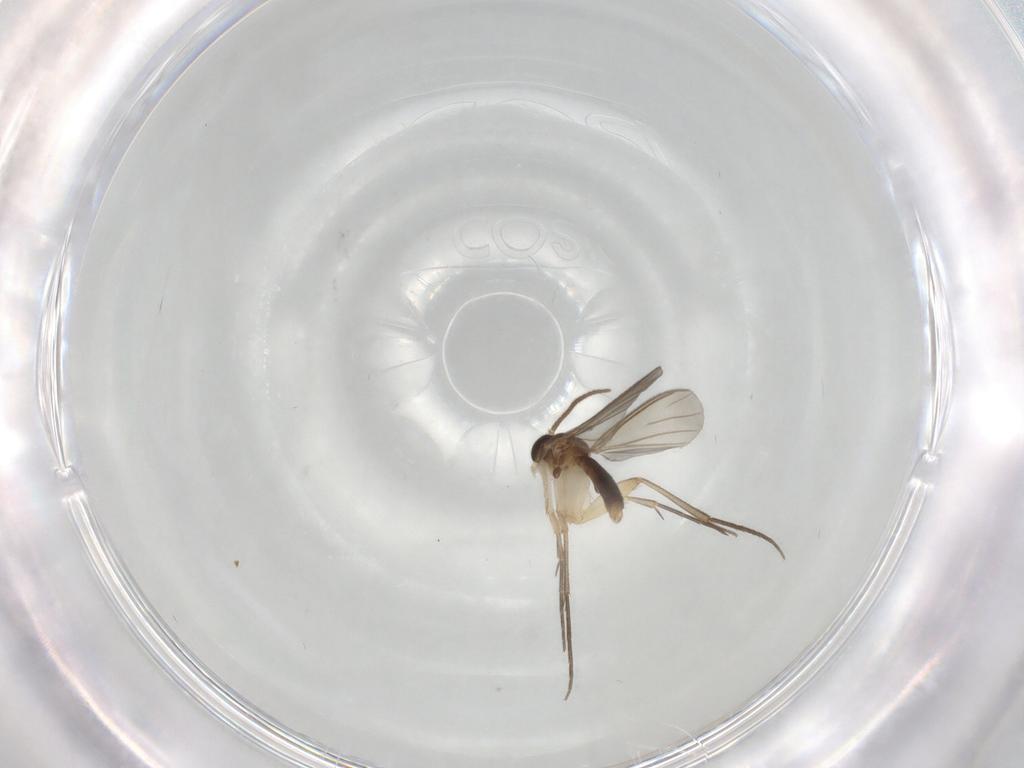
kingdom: Animalia
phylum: Arthropoda
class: Insecta
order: Diptera
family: Mycetophilidae
